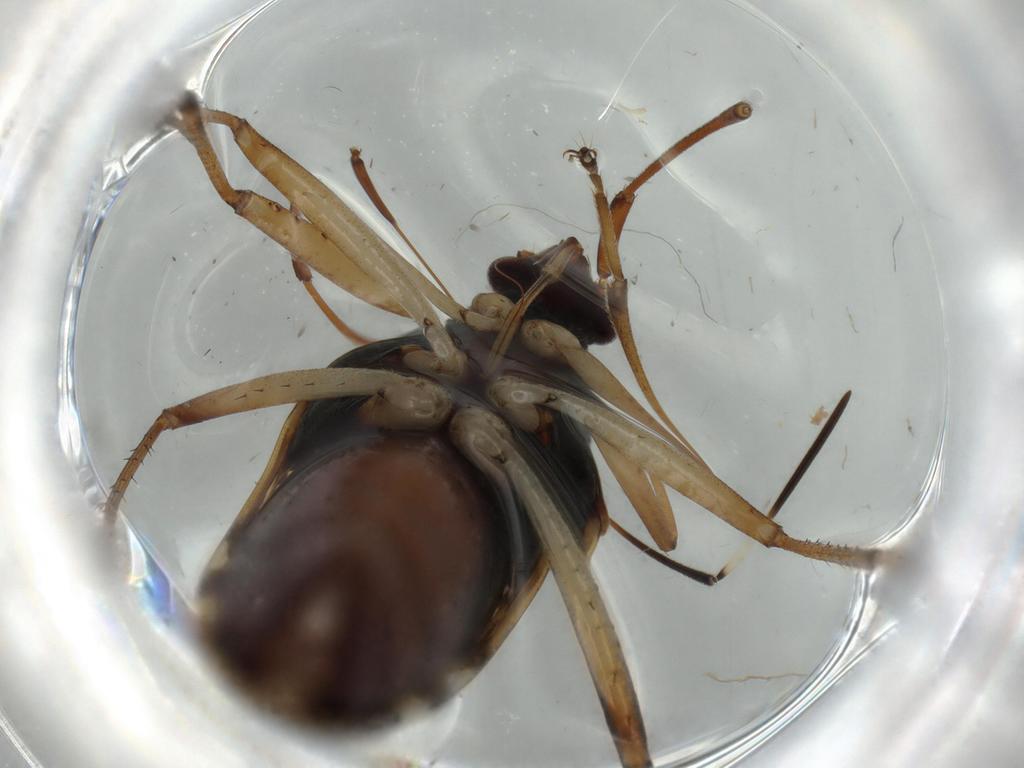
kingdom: Animalia
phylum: Arthropoda
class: Insecta
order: Hemiptera
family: Rhyparochromidae
